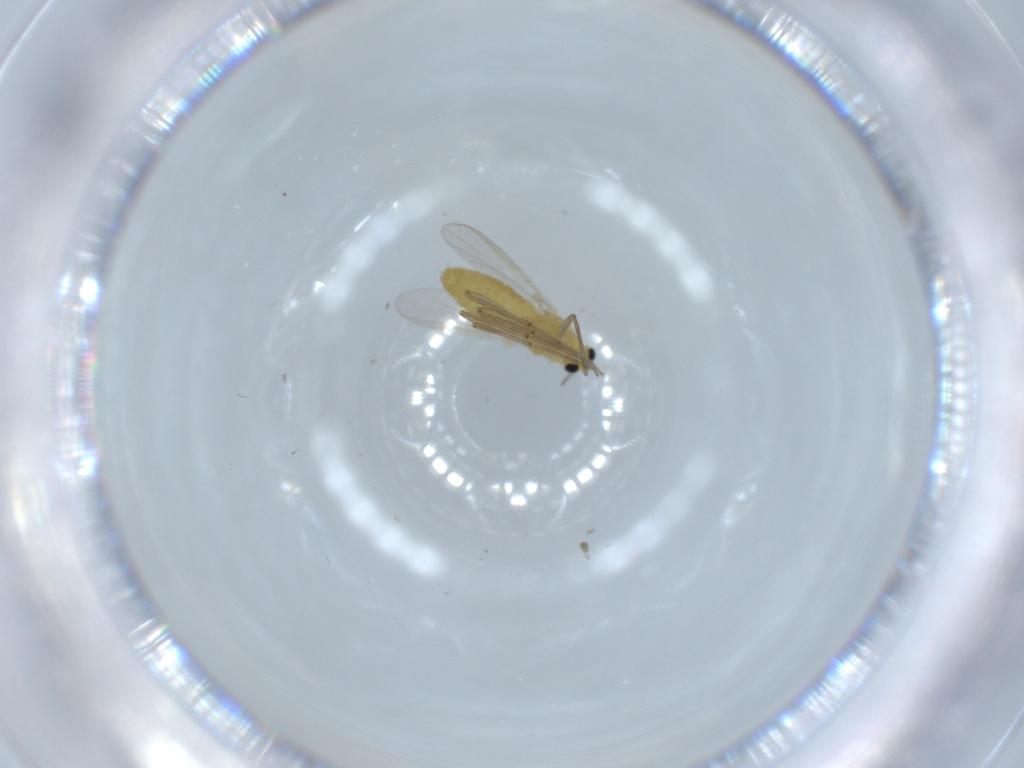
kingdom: Animalia
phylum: Arthropoda
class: Insecta
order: Diptera
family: Chironomidae
